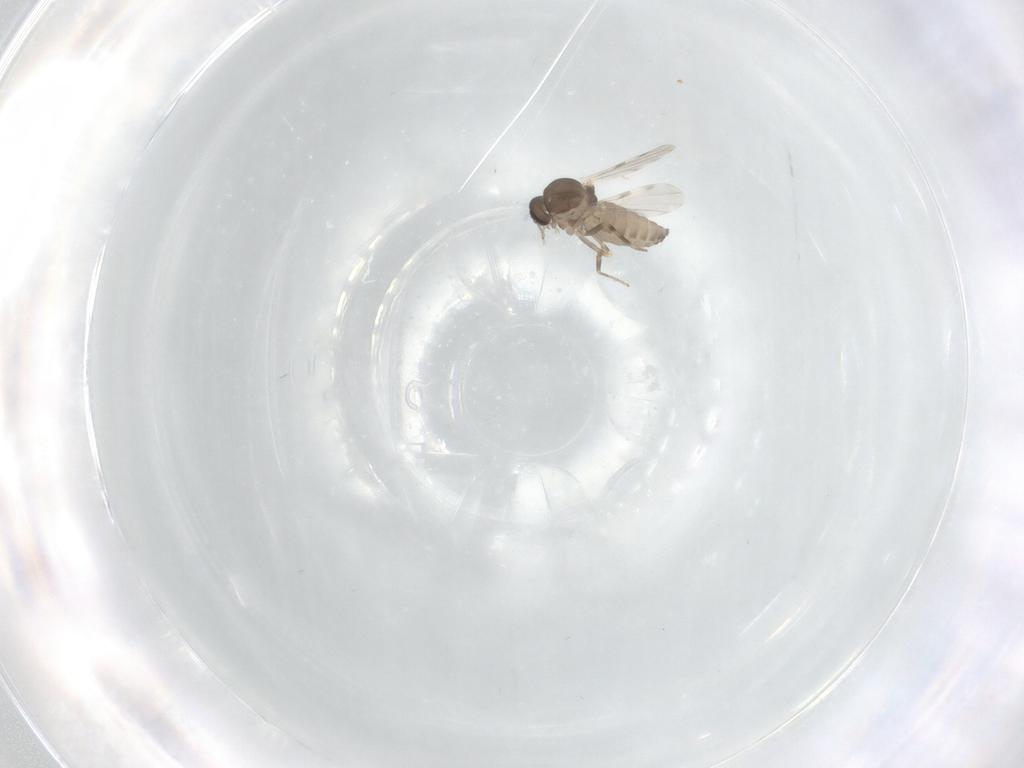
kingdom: Animalia
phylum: Arthropoda
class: Insecta
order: Diptera
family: Ceratopogonidae
